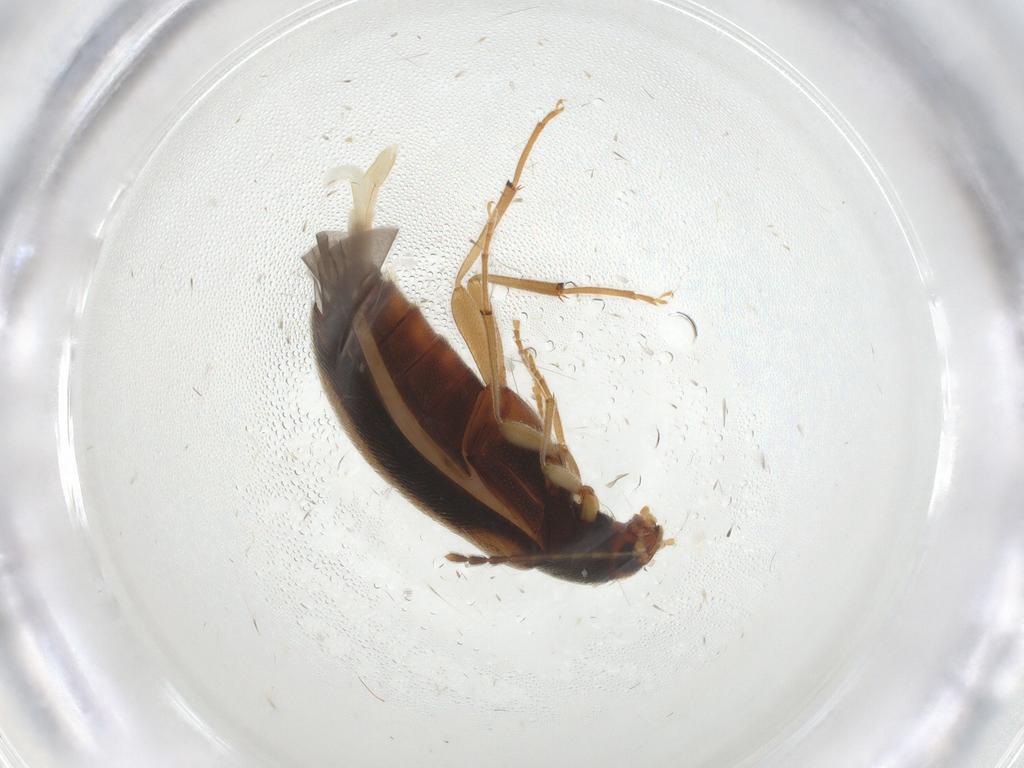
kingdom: Animalia
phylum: Arthropoda
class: Insecta
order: Coleoptera
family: Melandryidae
